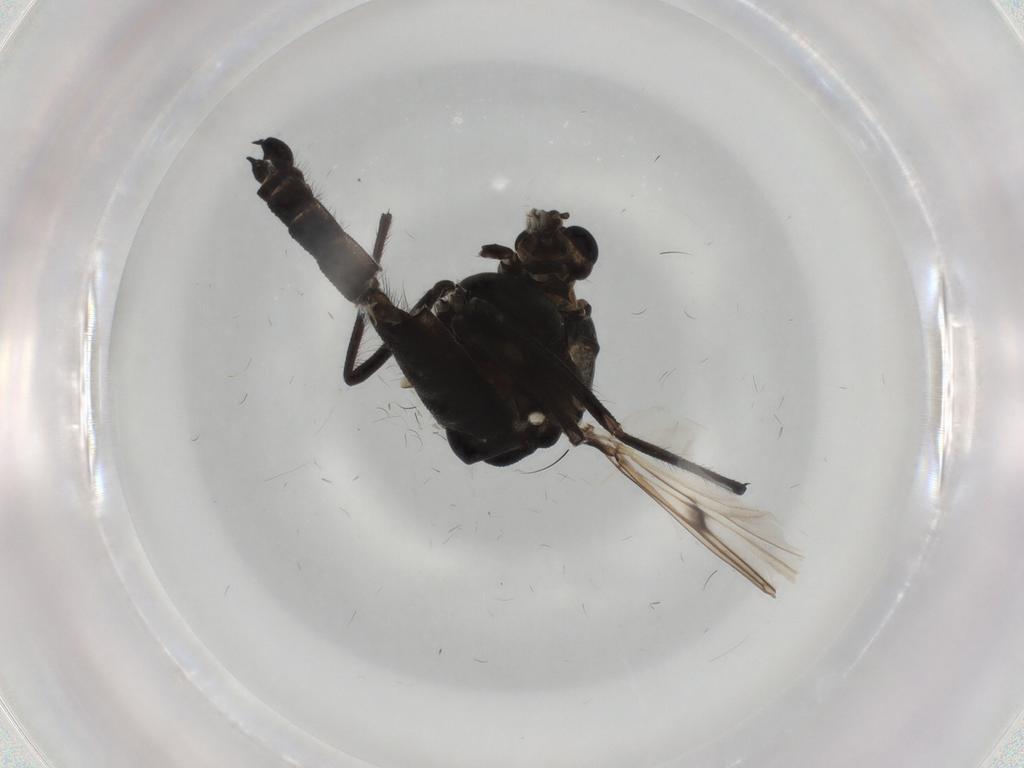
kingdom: Animalia
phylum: Arthropoda
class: Insecta
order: Diptera
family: Chironomidae
